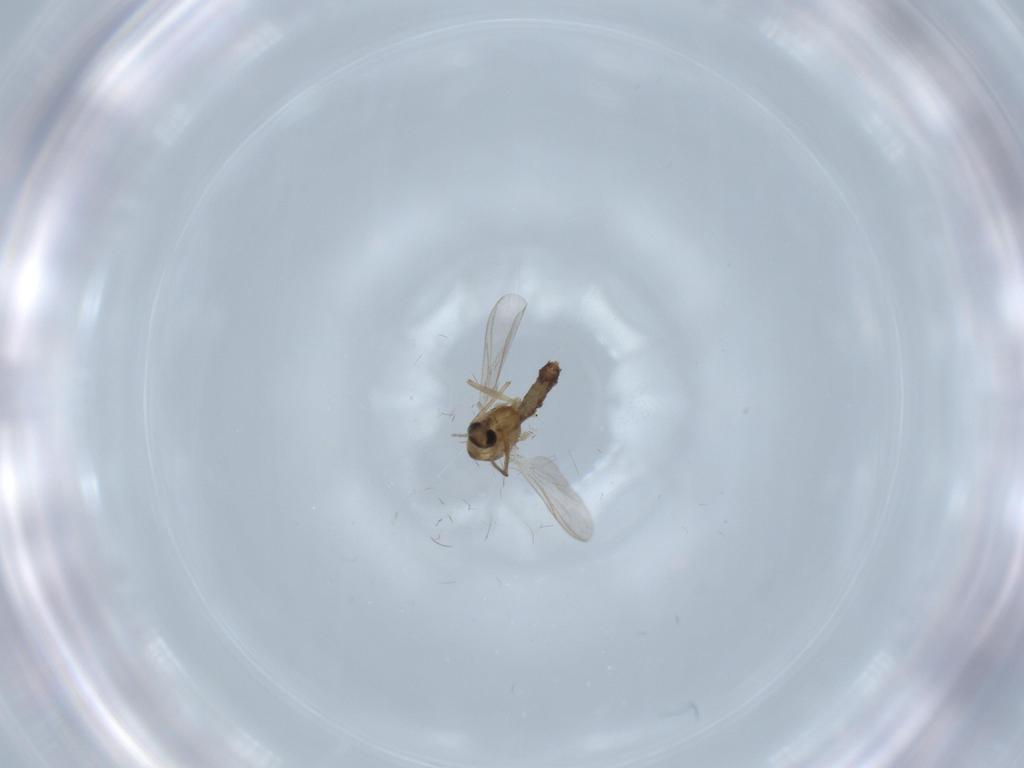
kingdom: Animalia
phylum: Arthropoda
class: Insecta
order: Diptera
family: Chironomidae
